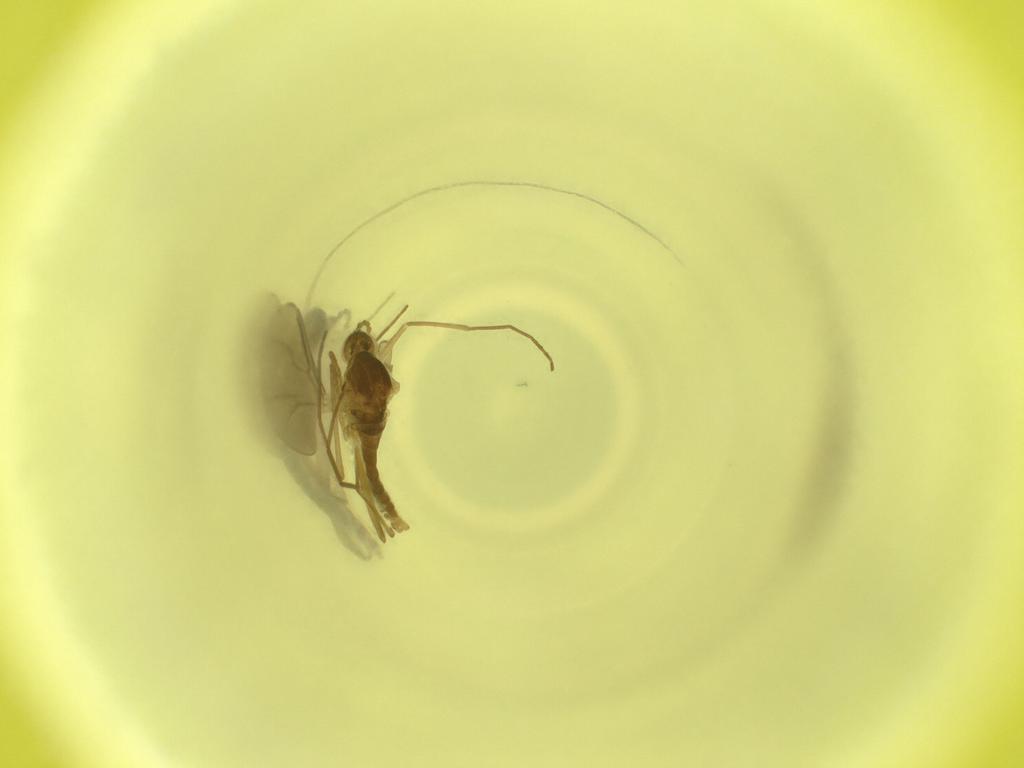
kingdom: Animalia
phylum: Arthropoda
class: Insecta
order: Diptera
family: Cecidomyiidae
